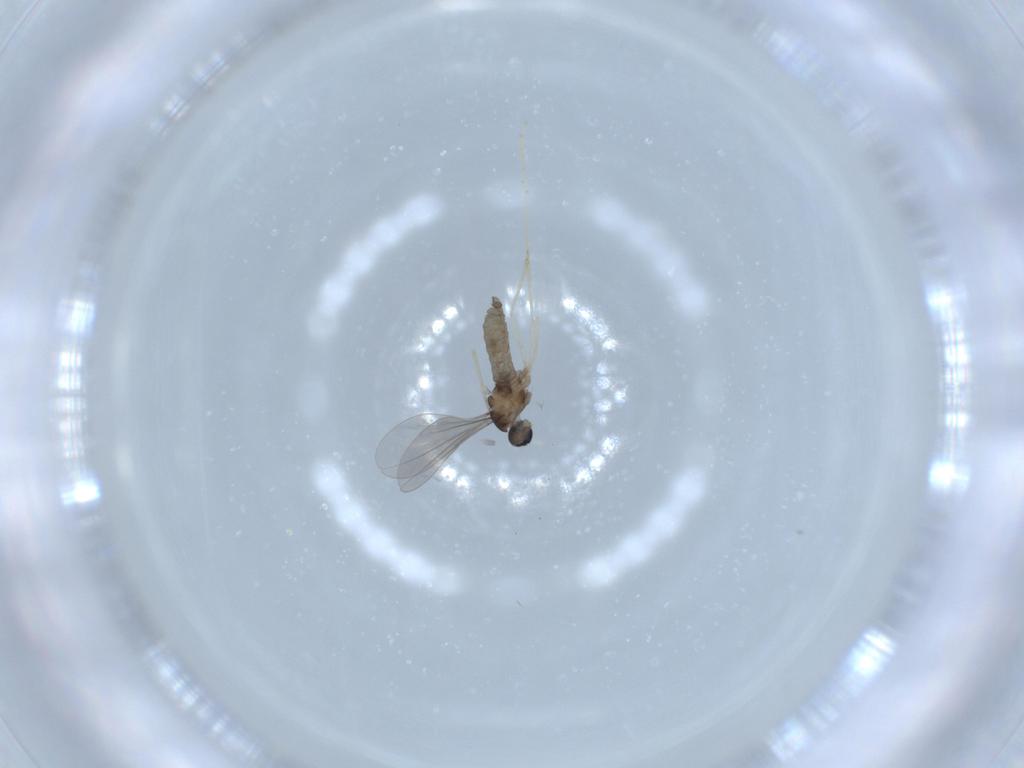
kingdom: Animalia
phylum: Arthropoda
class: Insecta
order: Diptera
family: Cecidomyiidae
